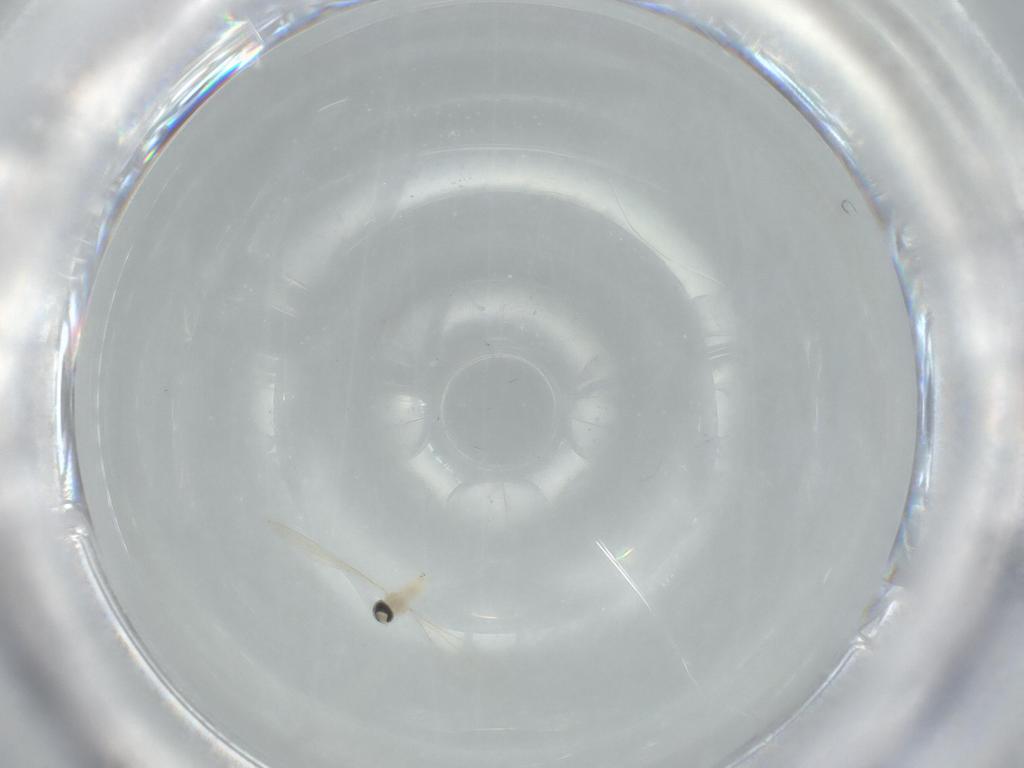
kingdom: Animalia
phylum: Arthropoda
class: Insecta
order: Diptera
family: Cecidomyiidae
